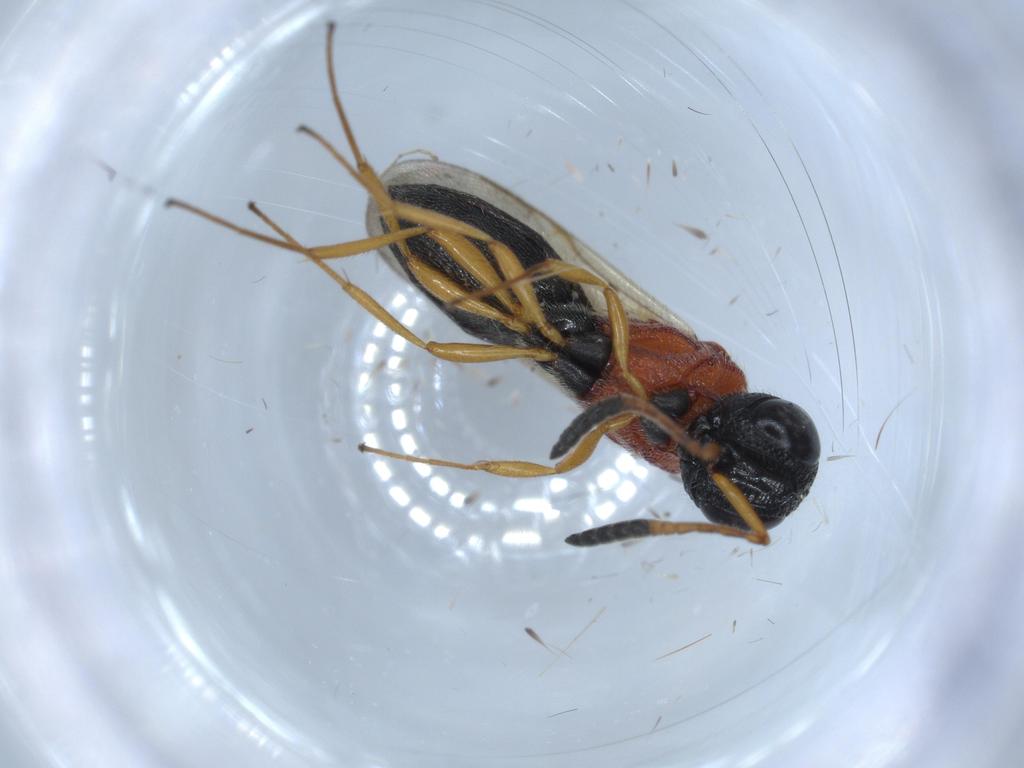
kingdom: Animalia
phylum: Arthropoda
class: Insecta
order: Hymenoptera
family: Scelionidae
